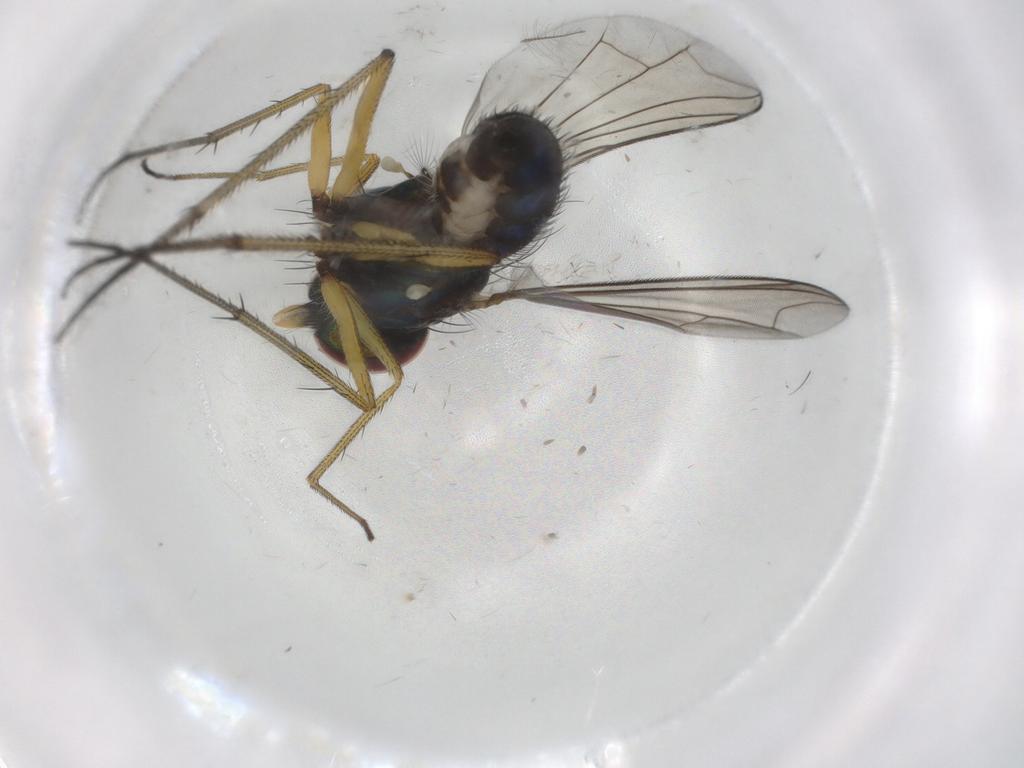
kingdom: Animalia
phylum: Arthropoda
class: Insecta
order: Diptera
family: Dolichopodidae
